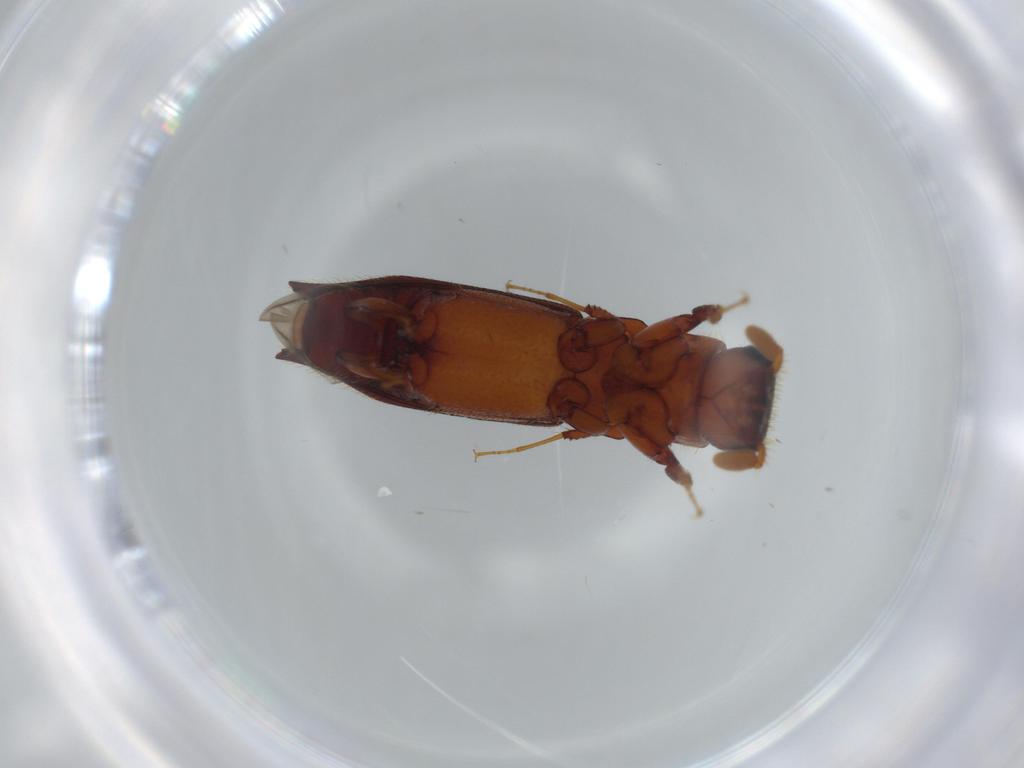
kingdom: Animalia
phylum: Arthropoda
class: Insecta
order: Coleoptera
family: Curculionidae
